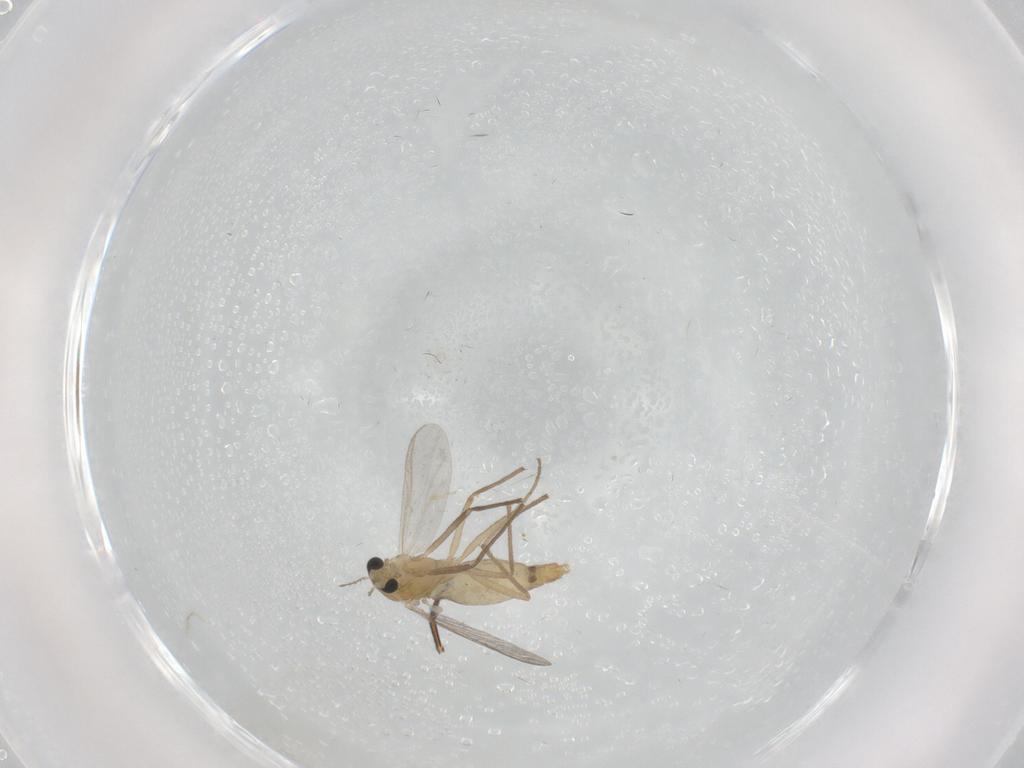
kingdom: Animalia
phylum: Arthropoda
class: Insecta
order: Diptera
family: Chironomidae
